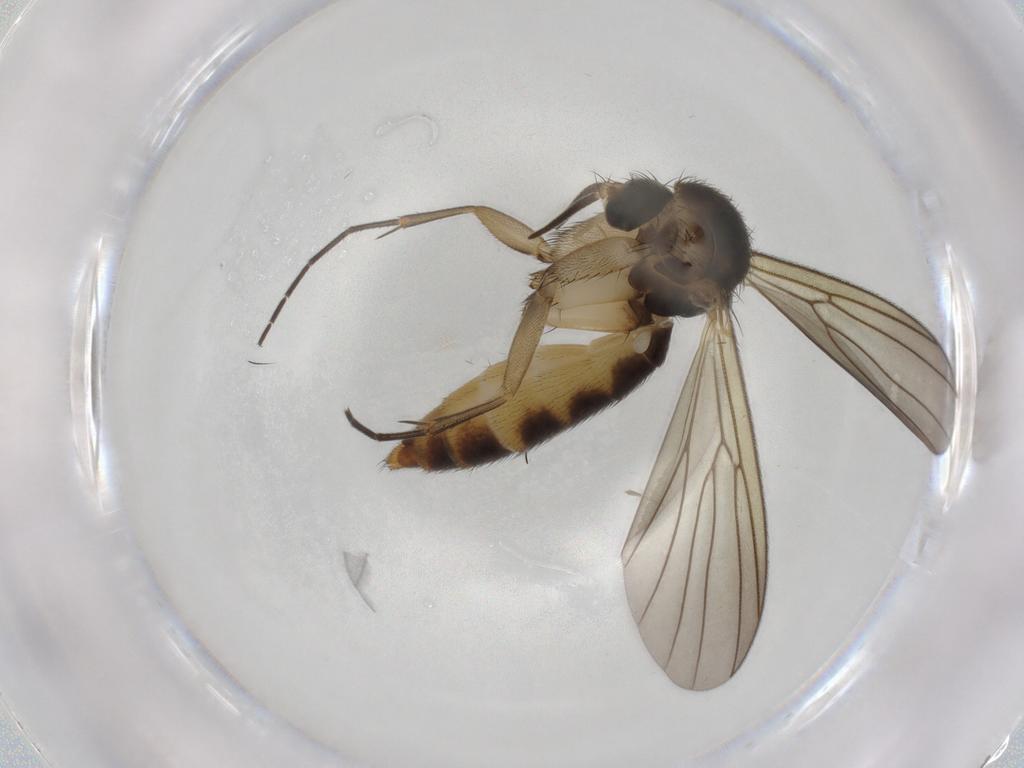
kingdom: Animalia
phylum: Arthropoda
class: Insecta
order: Diptera
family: Mycetophilidae
